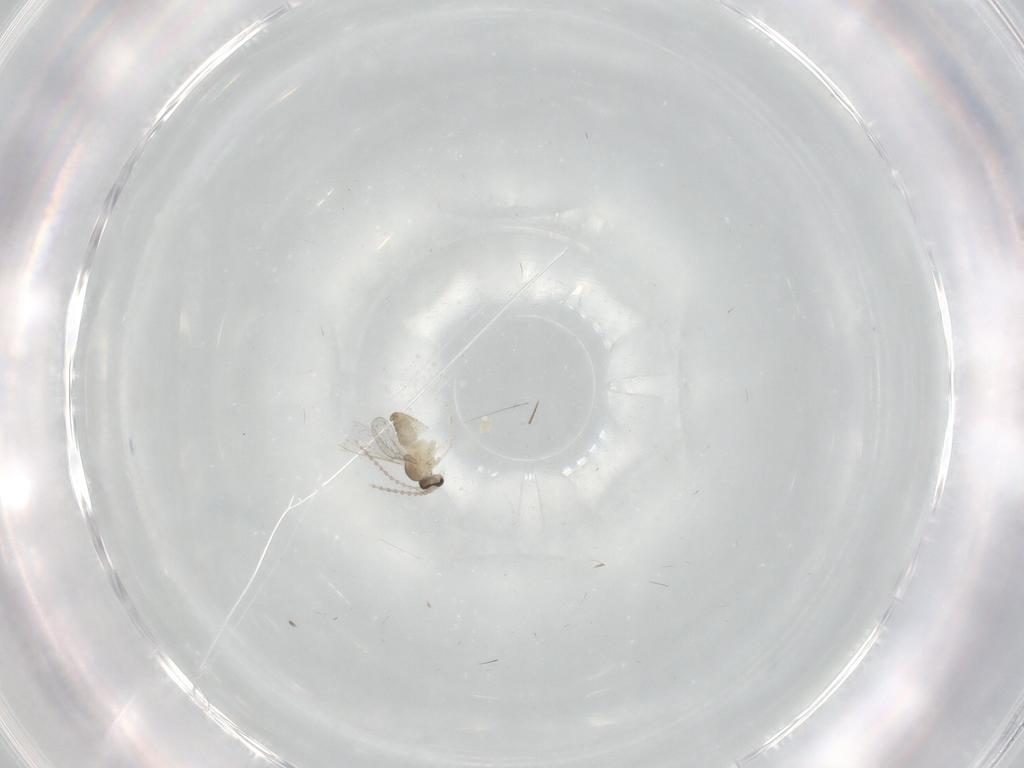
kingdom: Animalia
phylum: Arthropoda
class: Insecta
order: Diptera
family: Cecidomyiidae
